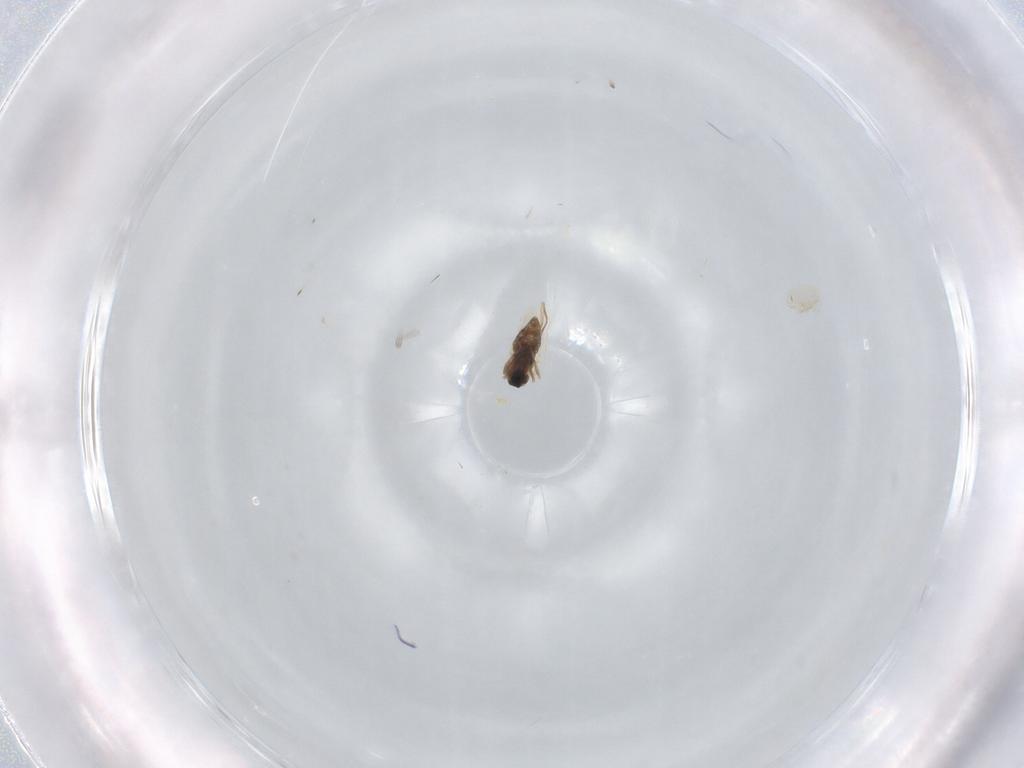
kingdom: Animalia
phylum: Arthropoda
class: Insecta
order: Diptera
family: Cecidomyiidae
